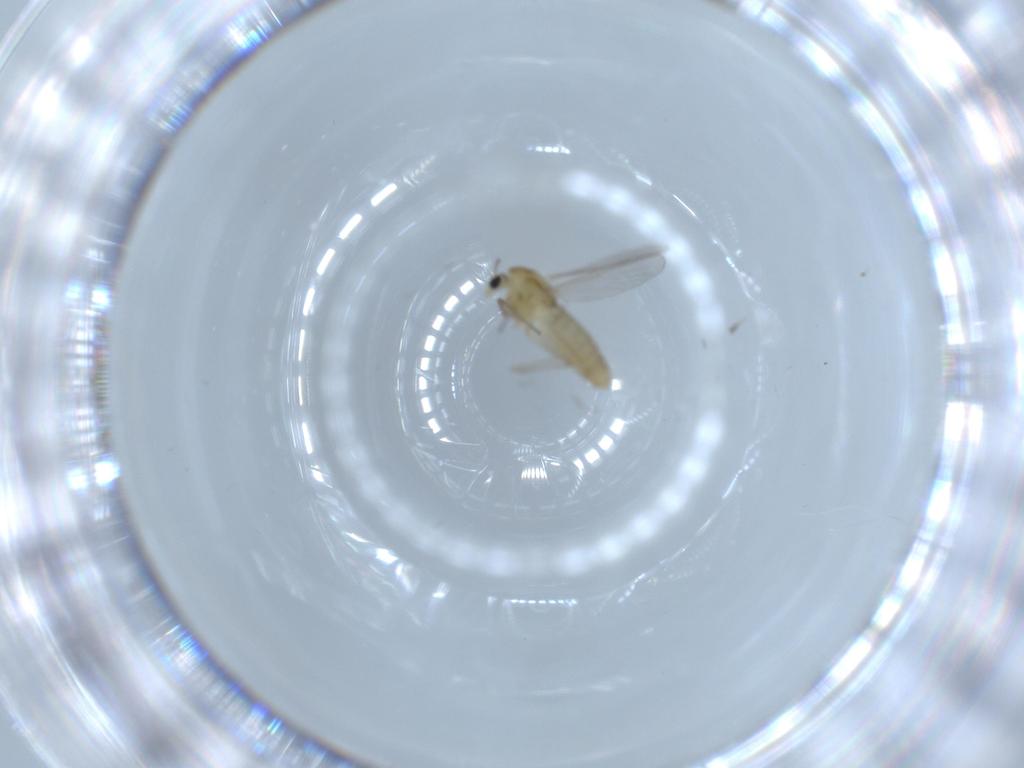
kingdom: Animalia
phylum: Arthropoda
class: Insecta
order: Diptera
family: Chironomidae
